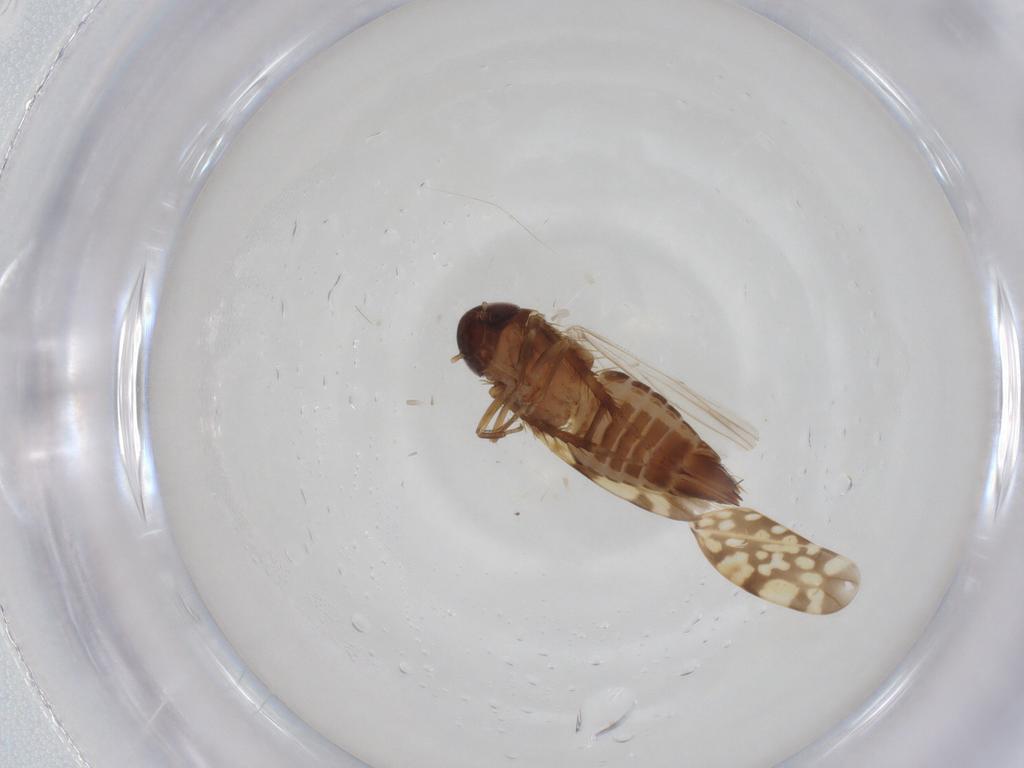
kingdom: Animalia
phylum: Arthropoda
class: Insecta
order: Hemiptera
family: Cicadellidae
